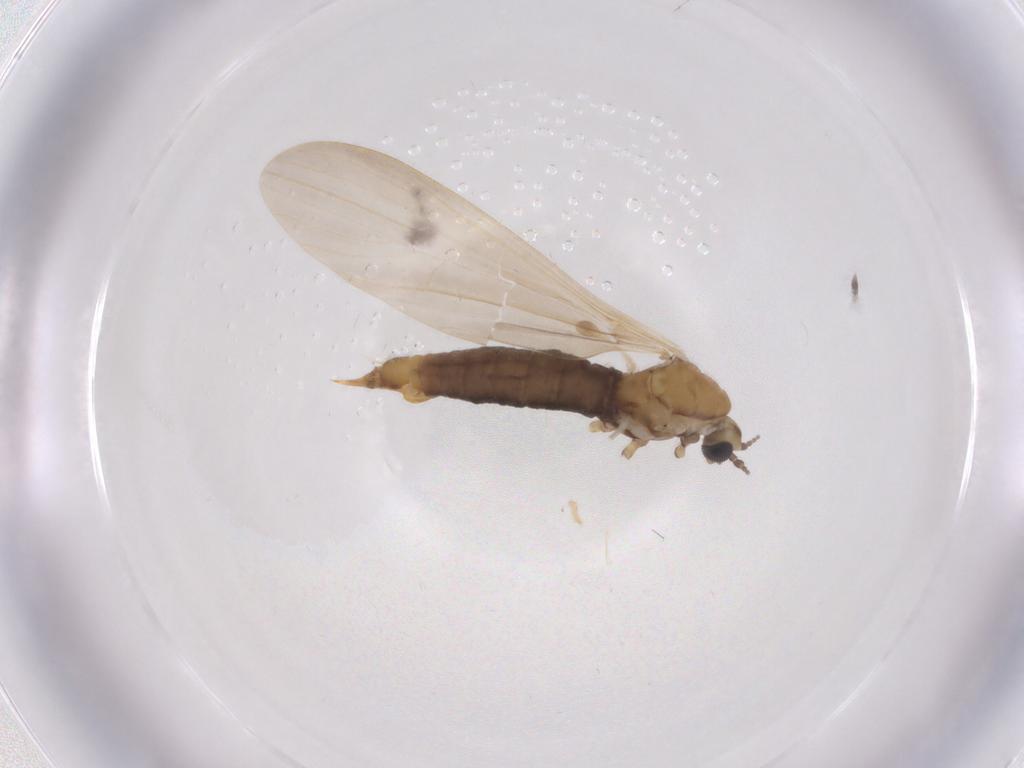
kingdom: Animalia
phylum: Arthropoda
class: Insecta
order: Diptera
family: Limoniidae
